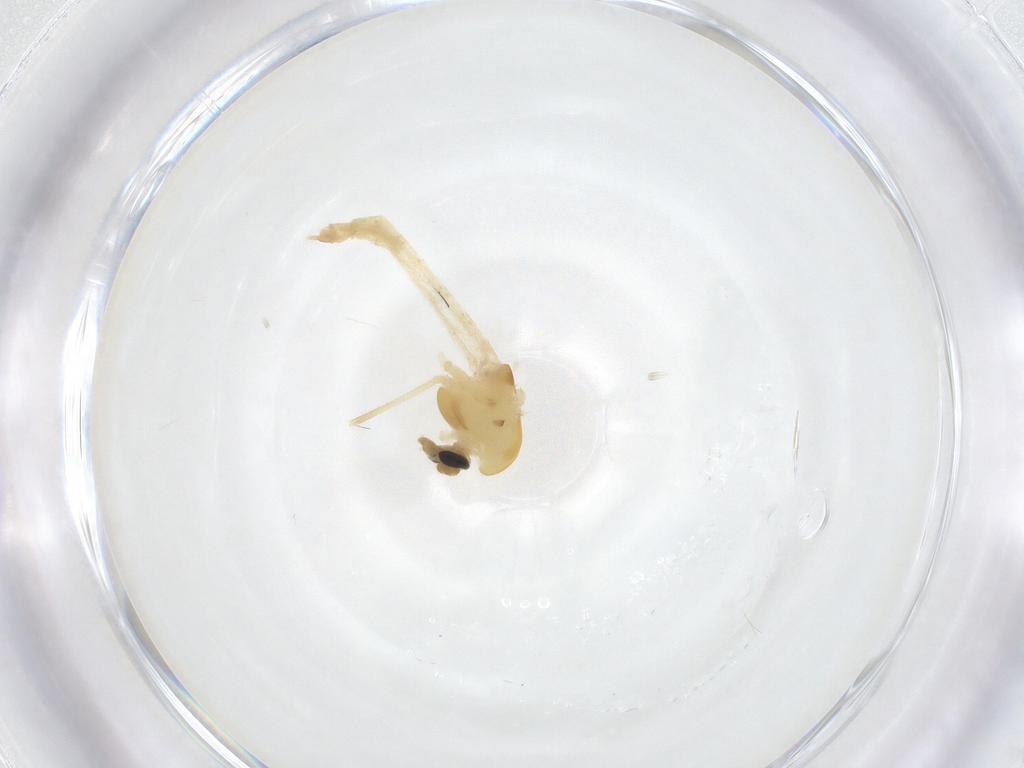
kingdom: Animalia
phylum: Arthropoda
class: Insecta
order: Diptera
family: Chironomidae
